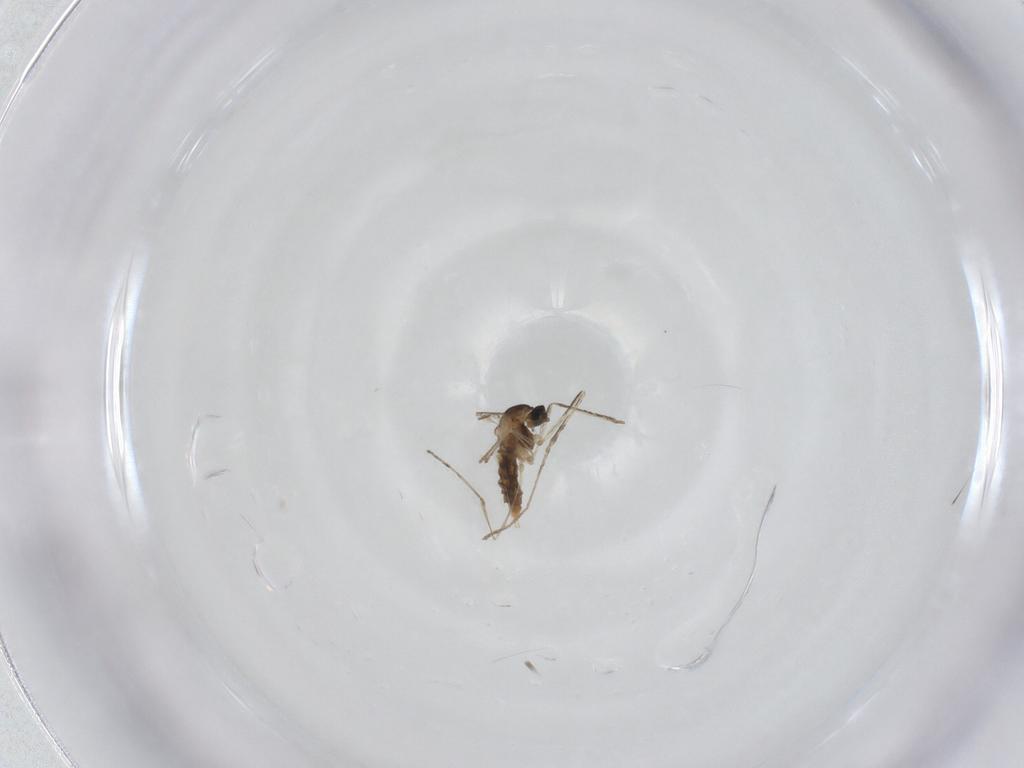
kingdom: Animalia
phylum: Arthropoda
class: Insecta
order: Diptera
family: Cecidomyiidae
